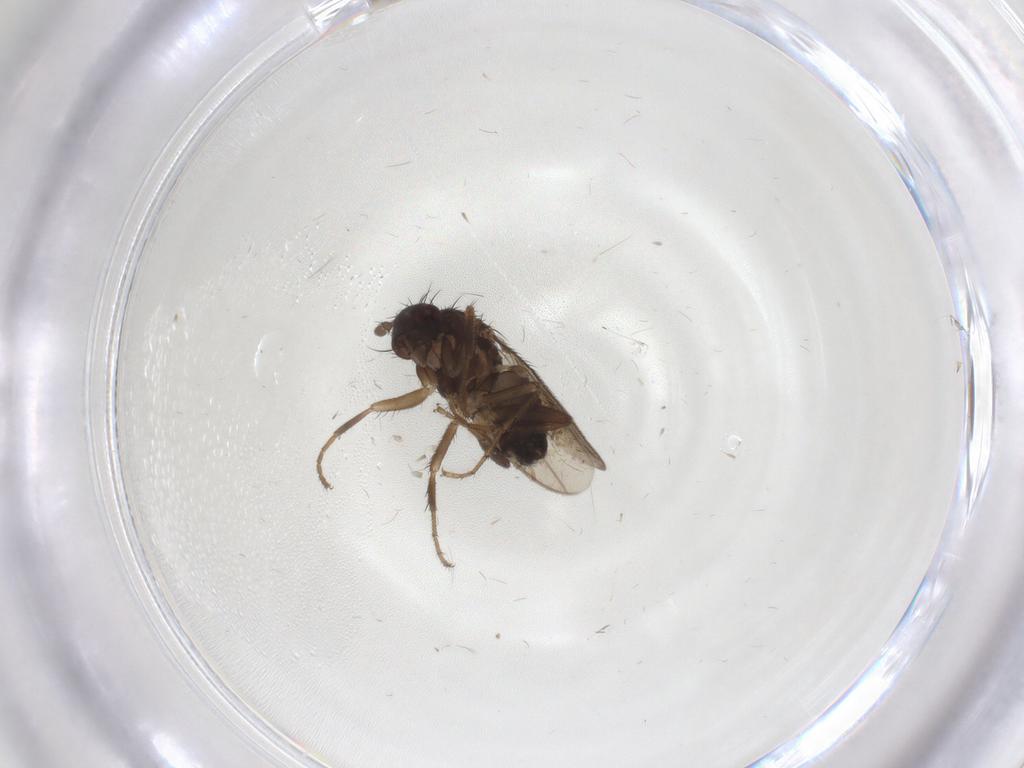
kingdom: Animalia
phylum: Arthropoda
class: Insecta
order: Diptera
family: Sphaeroceridae
